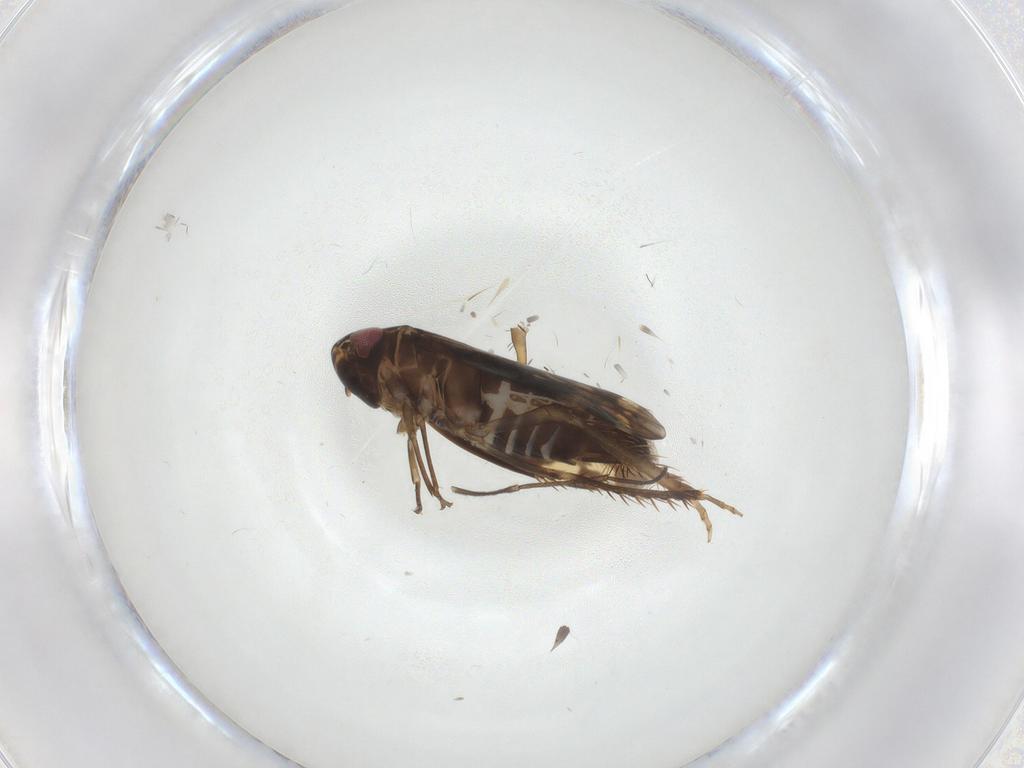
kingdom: Animalia
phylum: Arthropoda
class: Insecta
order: Hemiptera
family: Cicadellidae
